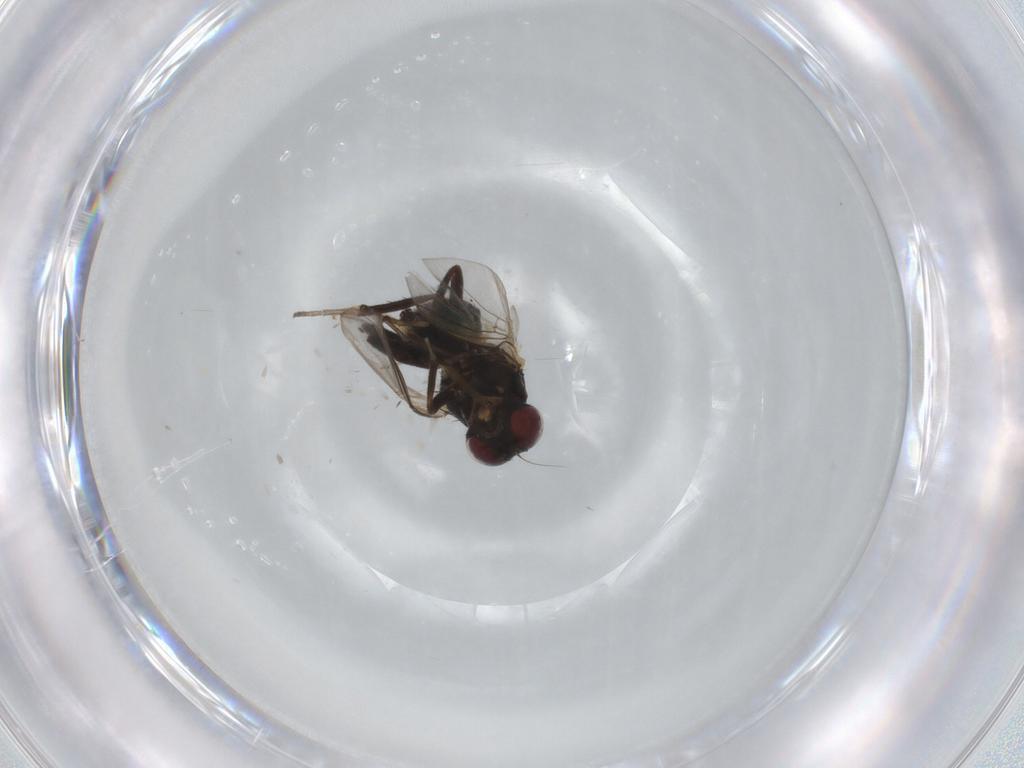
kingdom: Animalia
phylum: Arthropoda
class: Insecta
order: Diptera
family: Agromyzidae
